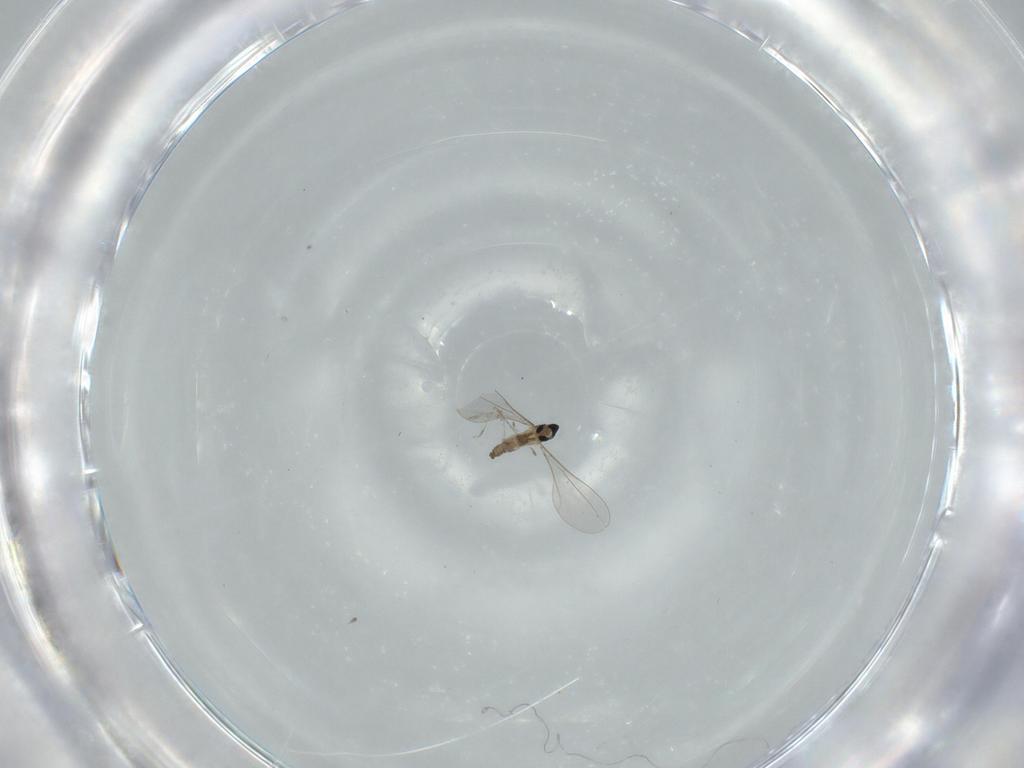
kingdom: Animalia
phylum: Arthropoda
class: Insecta
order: Diptera
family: Cecidomyiidae
